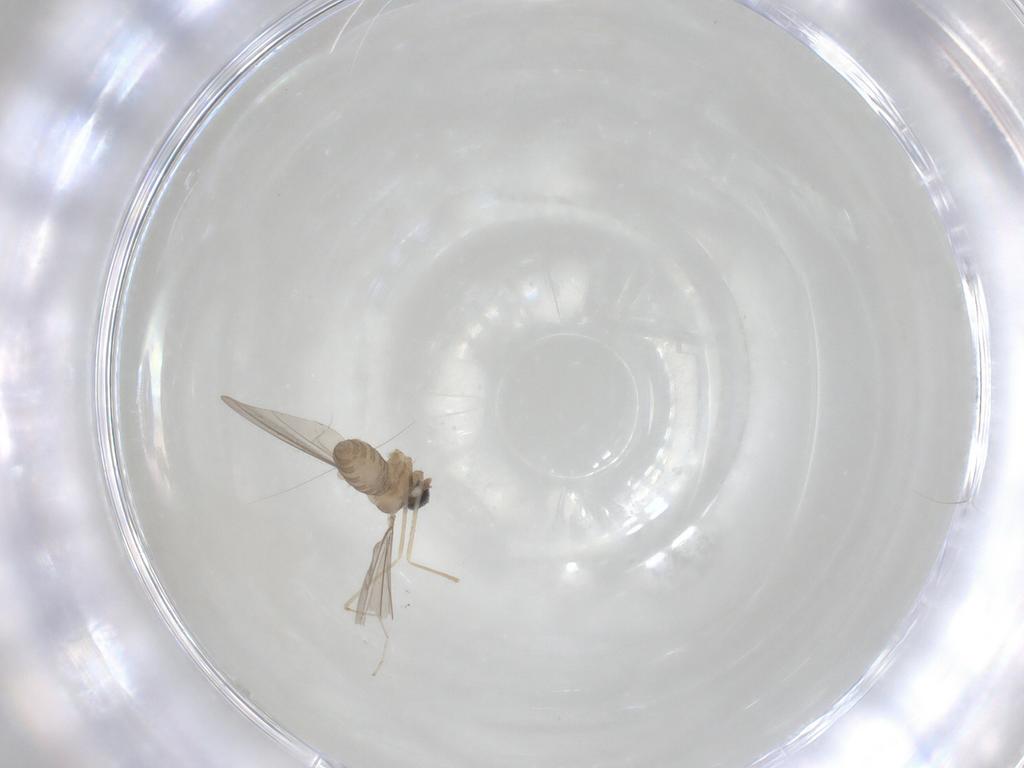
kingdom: Animalia
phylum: Arthropoda
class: Insecta
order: Diptera
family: Cecidomyiidae
